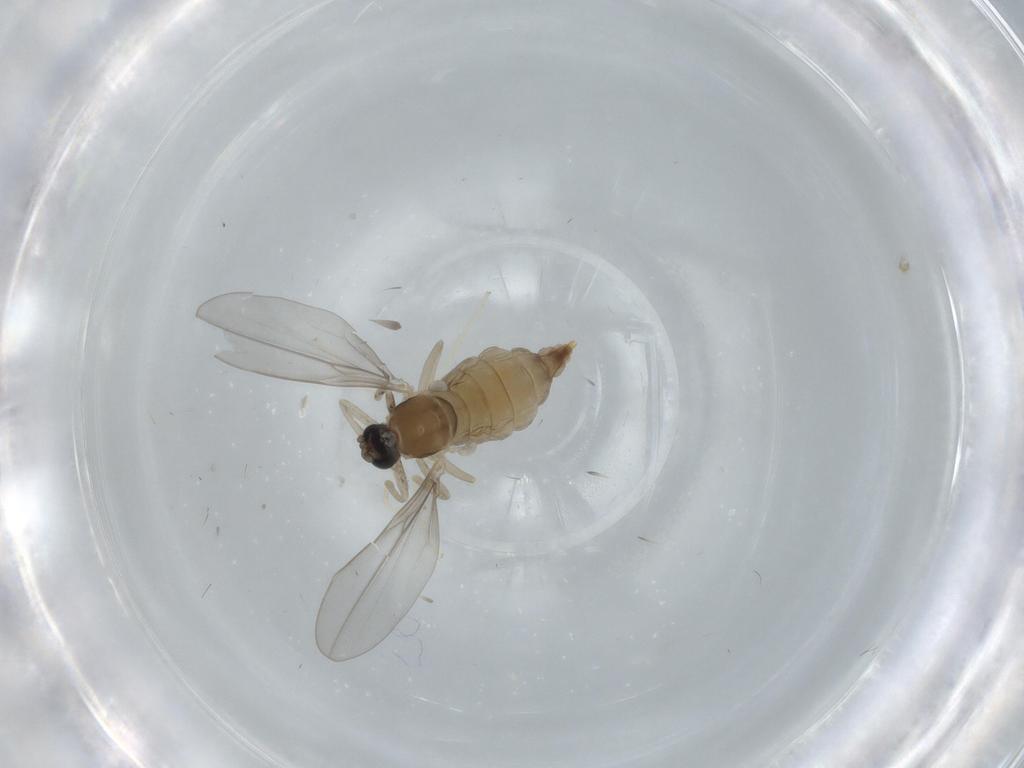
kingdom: Animalia
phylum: Arthropoda
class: Insecta
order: Diptera
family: Cecidomyiidae
